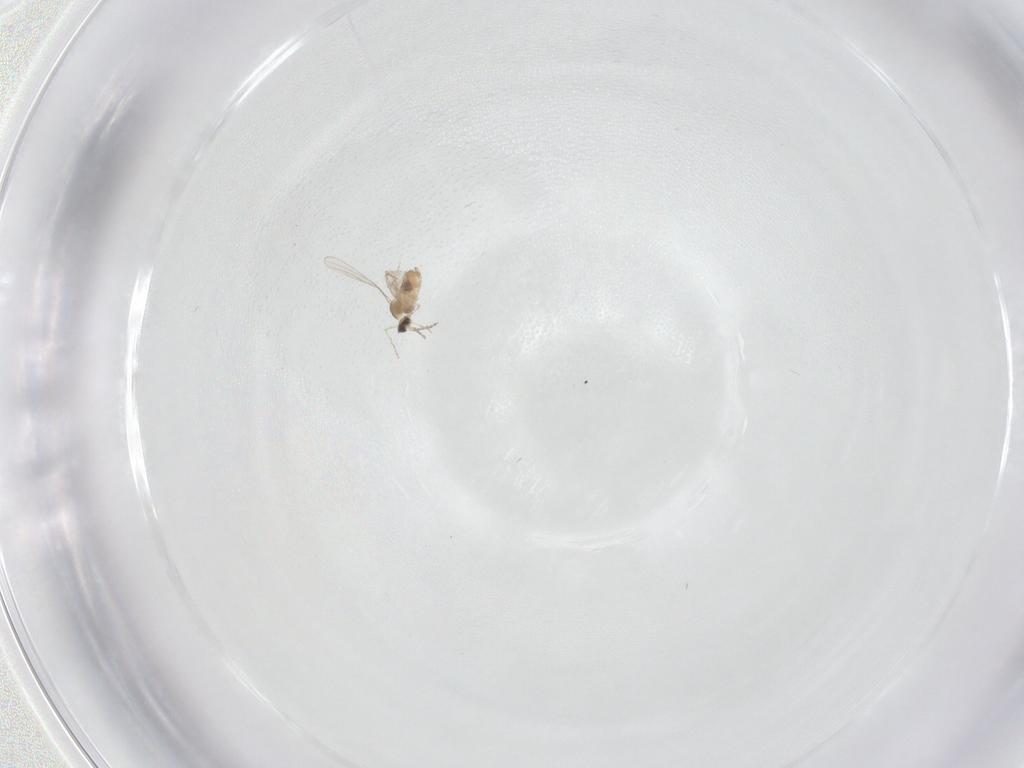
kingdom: Animalia
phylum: Arthropoda
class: Insecta
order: Diptera
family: Cecidomyiidae
